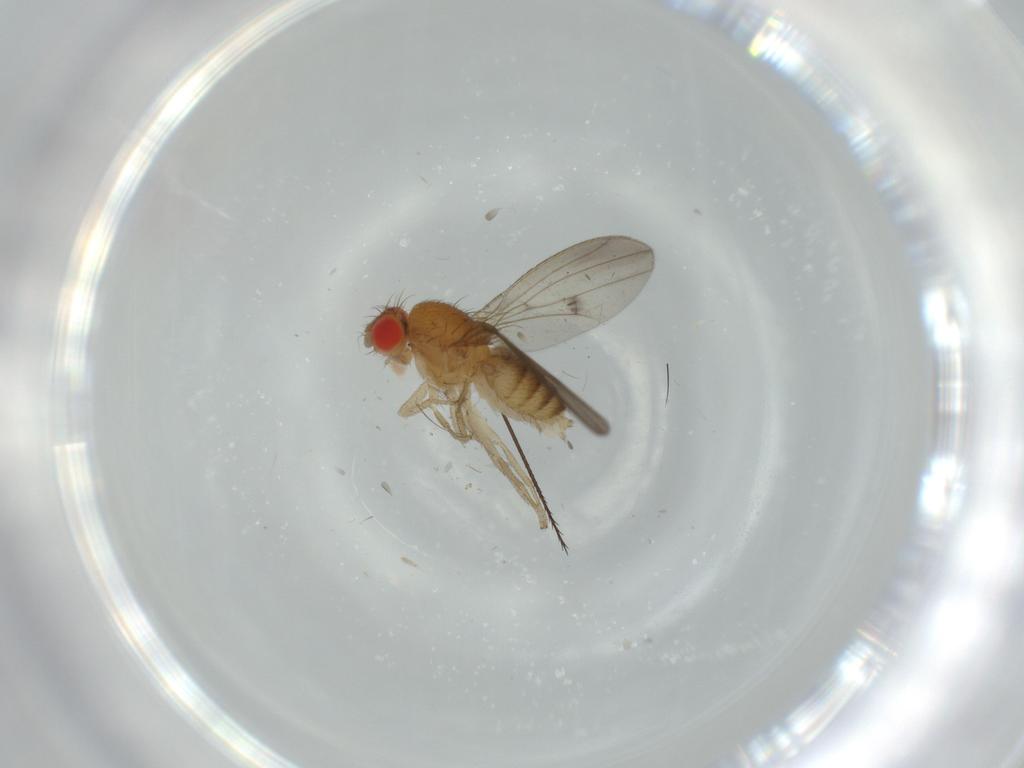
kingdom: Animalia
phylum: Arthropoda
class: Insecta
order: Diptera
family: Drosophilidae
